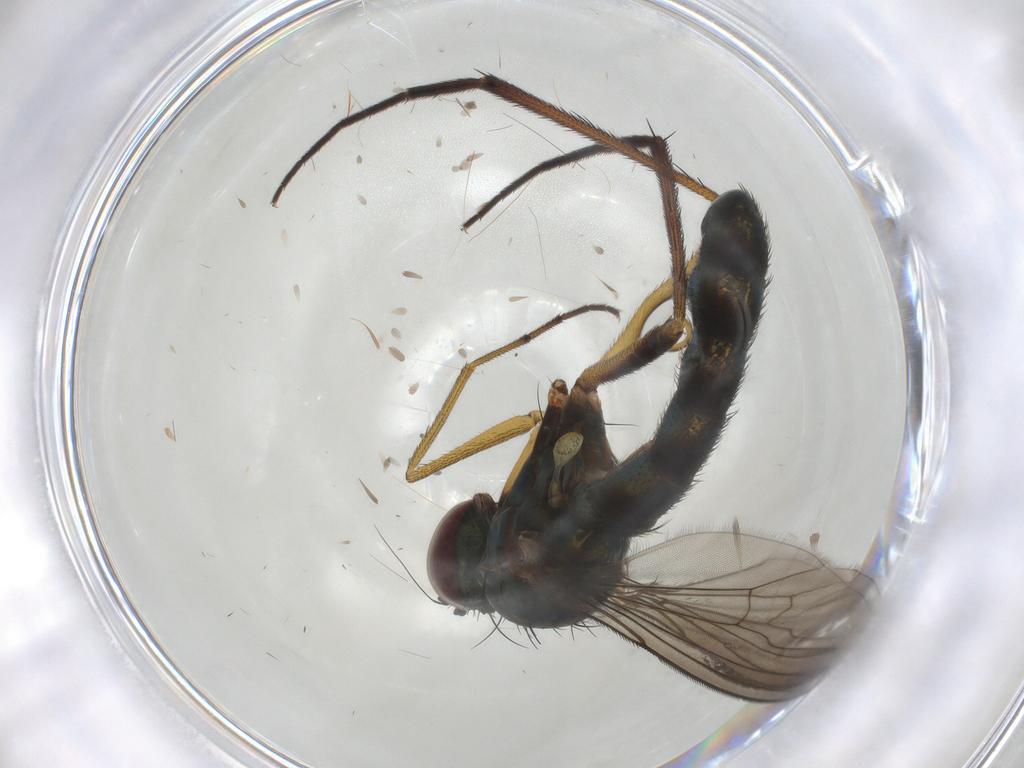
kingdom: Animalia
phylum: Arthropoda
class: Insecta
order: Diptera
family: Dolichopodidae
